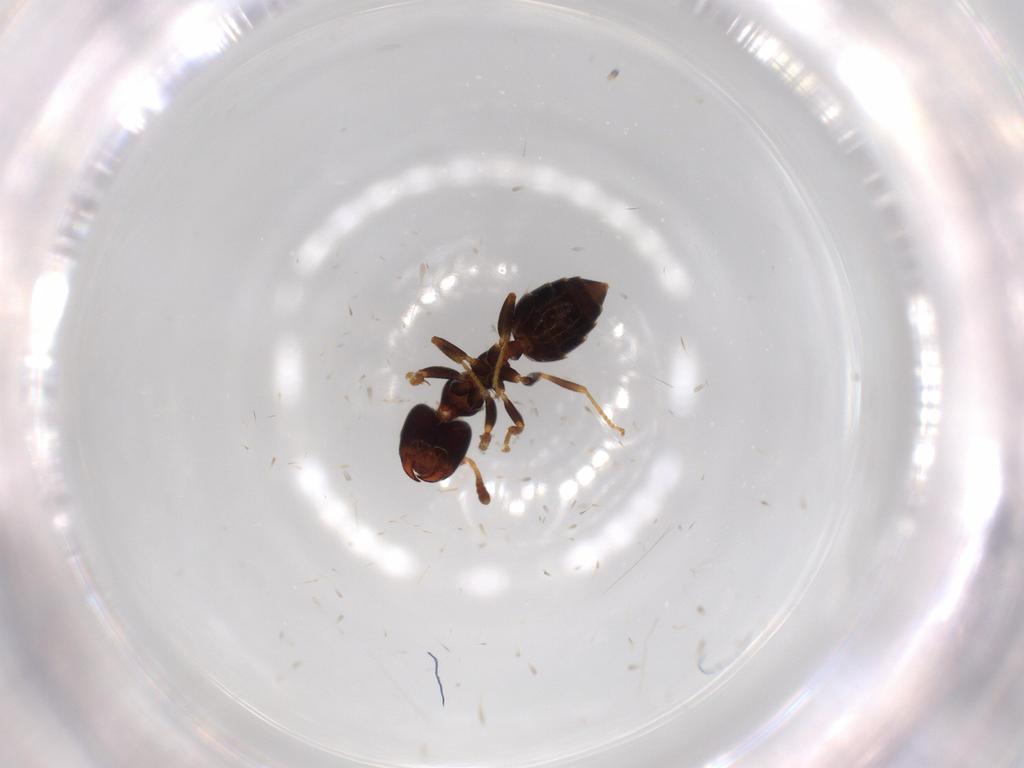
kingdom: Animalia
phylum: Arthropoda
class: Insecta
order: Hymenoptera
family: Formicidae
